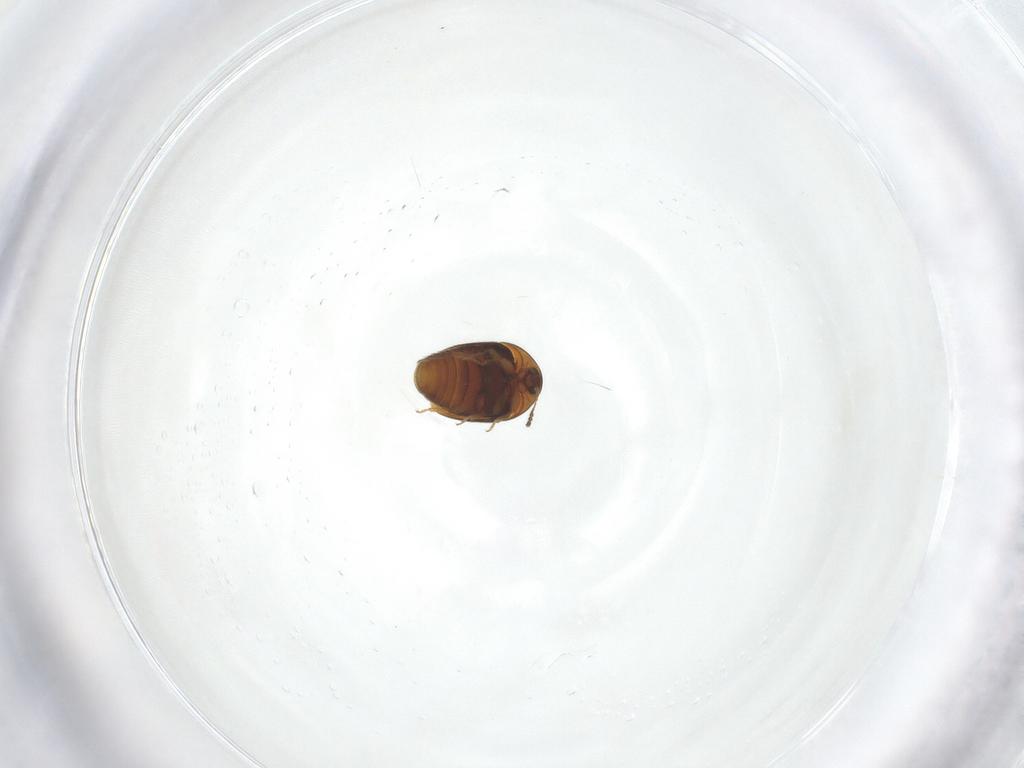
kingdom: Animalia
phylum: Arthropoda
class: Insecta
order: Coleoptera
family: Corylophidae
